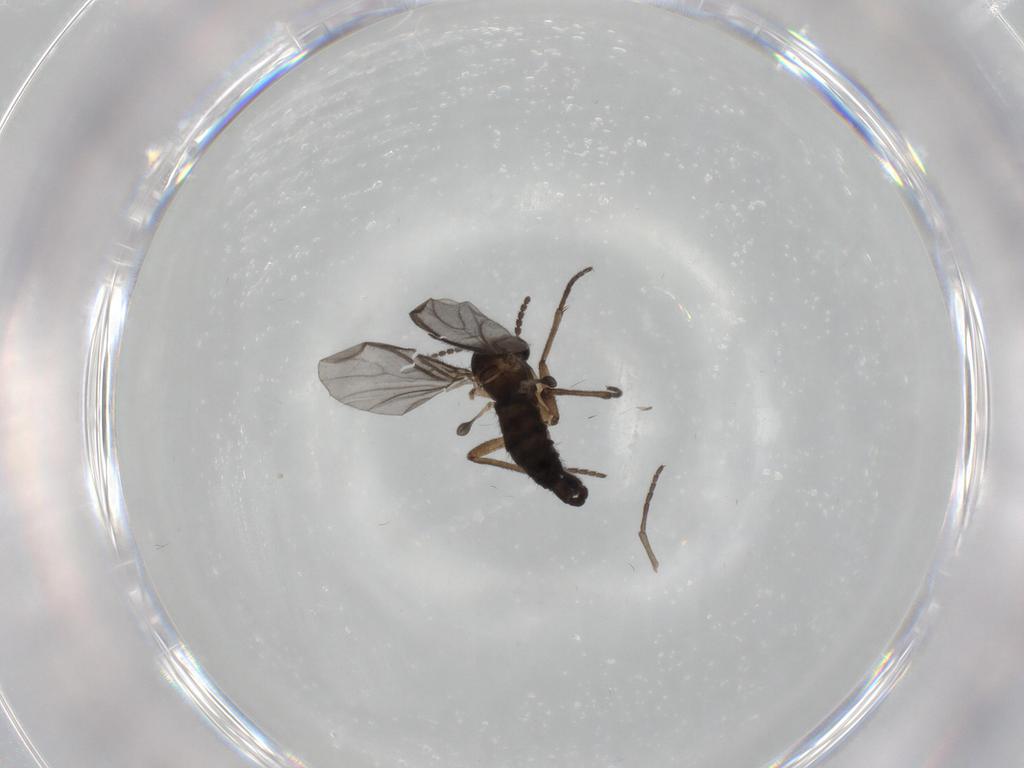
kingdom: Animalia
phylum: Arthropoda
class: Insecta
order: Diptera
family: Sciaridae
